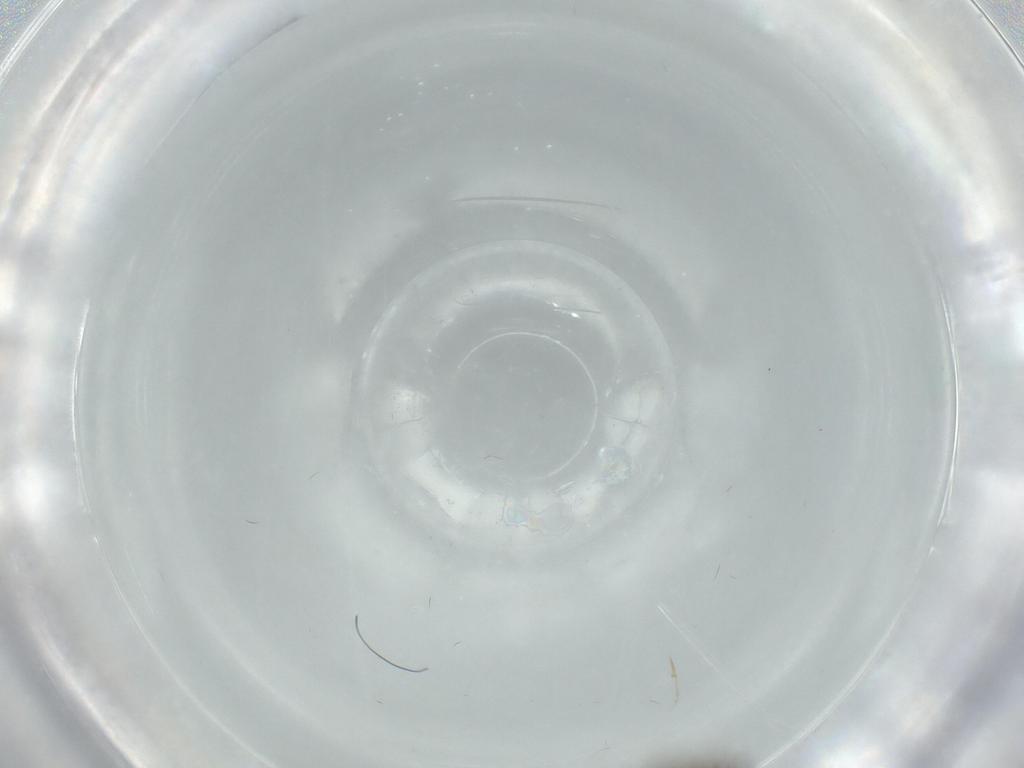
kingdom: Animalia
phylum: Arthropoda
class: Insecta
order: Diptera
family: Psychodidae
